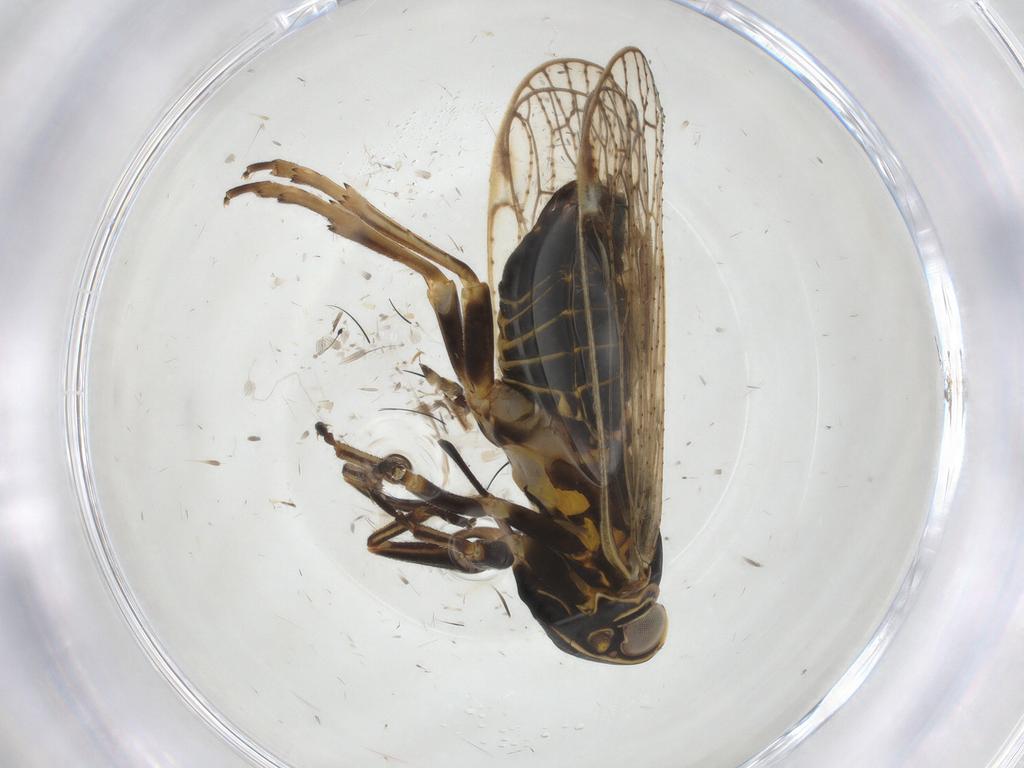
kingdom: Animalia
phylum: Arthropoda
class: Insecta
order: Hemiptera
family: Cixiidae
